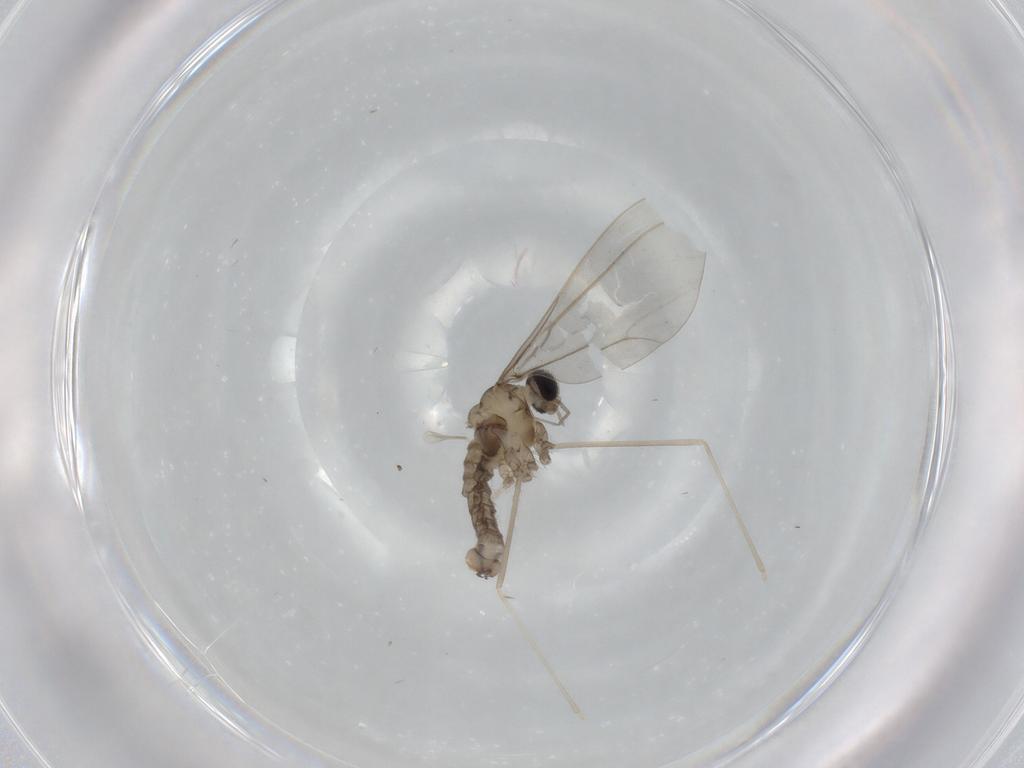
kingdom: Animalia
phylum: Arthropoda
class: Insecta
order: Diptera
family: Cecidomyiidae
